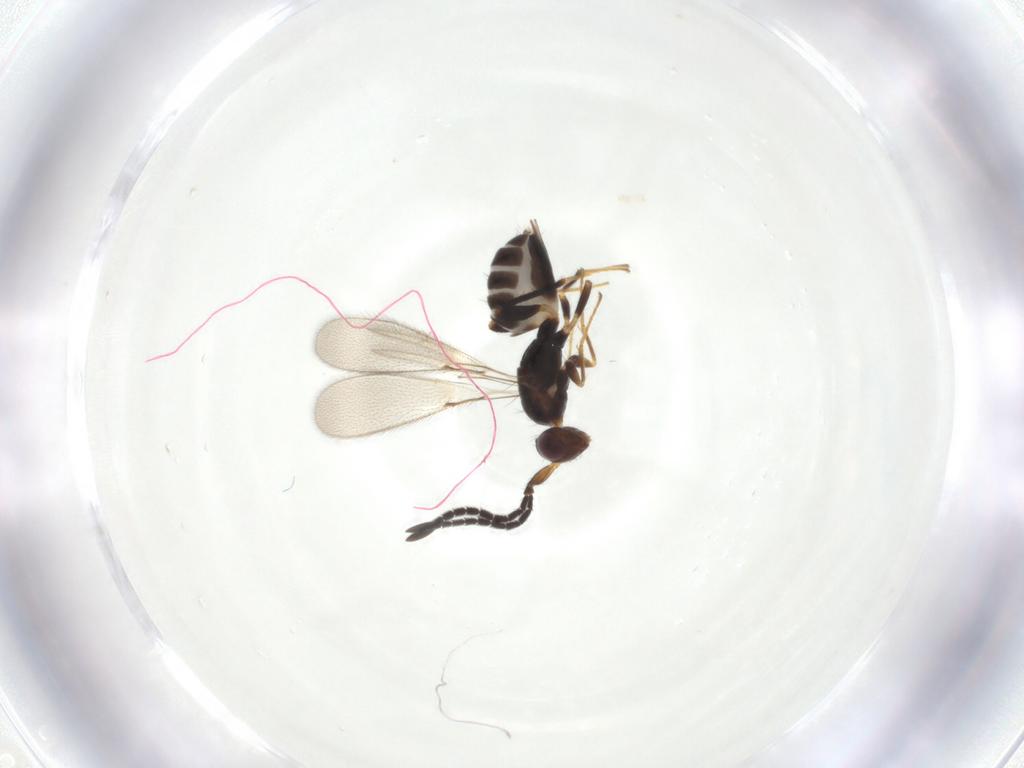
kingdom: Animalia
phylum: Arthropoda
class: Insecta
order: Hymenoptera
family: Mymaridae
